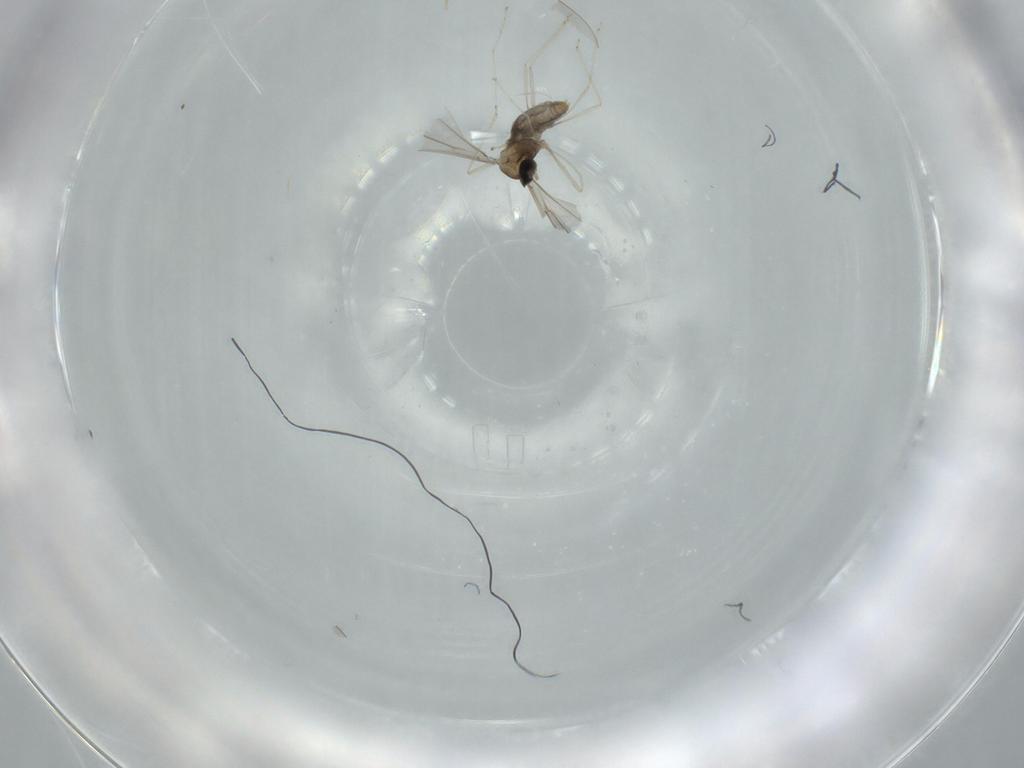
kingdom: Animalia
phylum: Arthropoda
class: Insecta
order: Diptera
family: Cecidomyiidae
